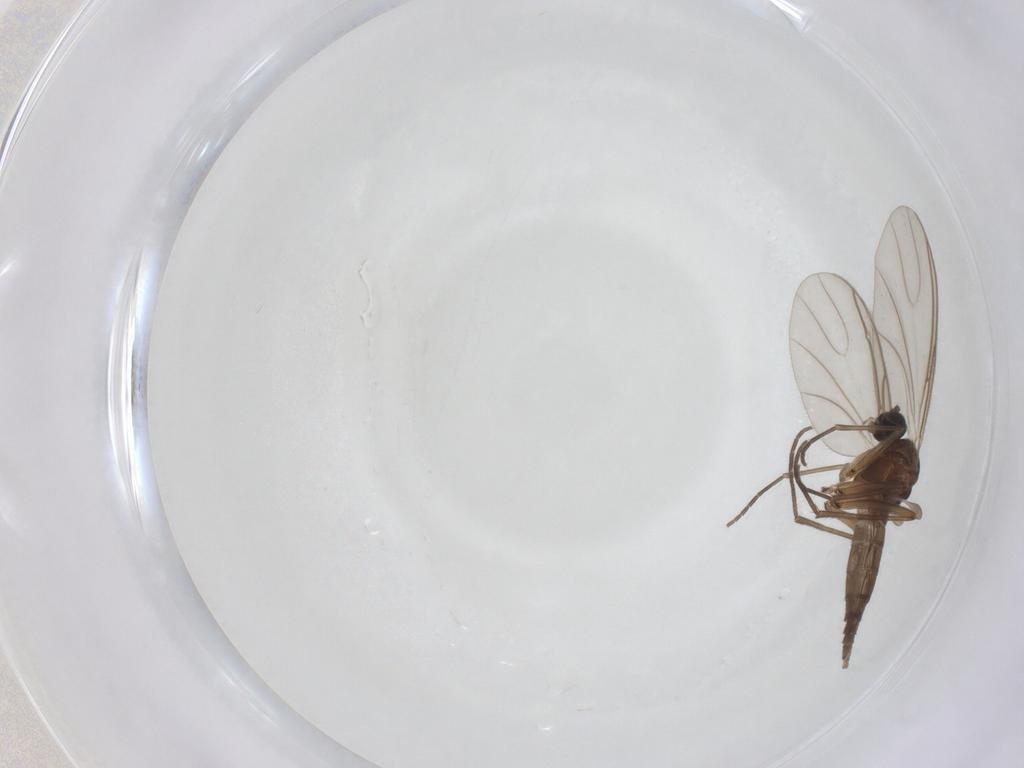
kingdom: Animalia
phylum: Arthropoda
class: Insecta
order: Diptera
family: Sciaridae
